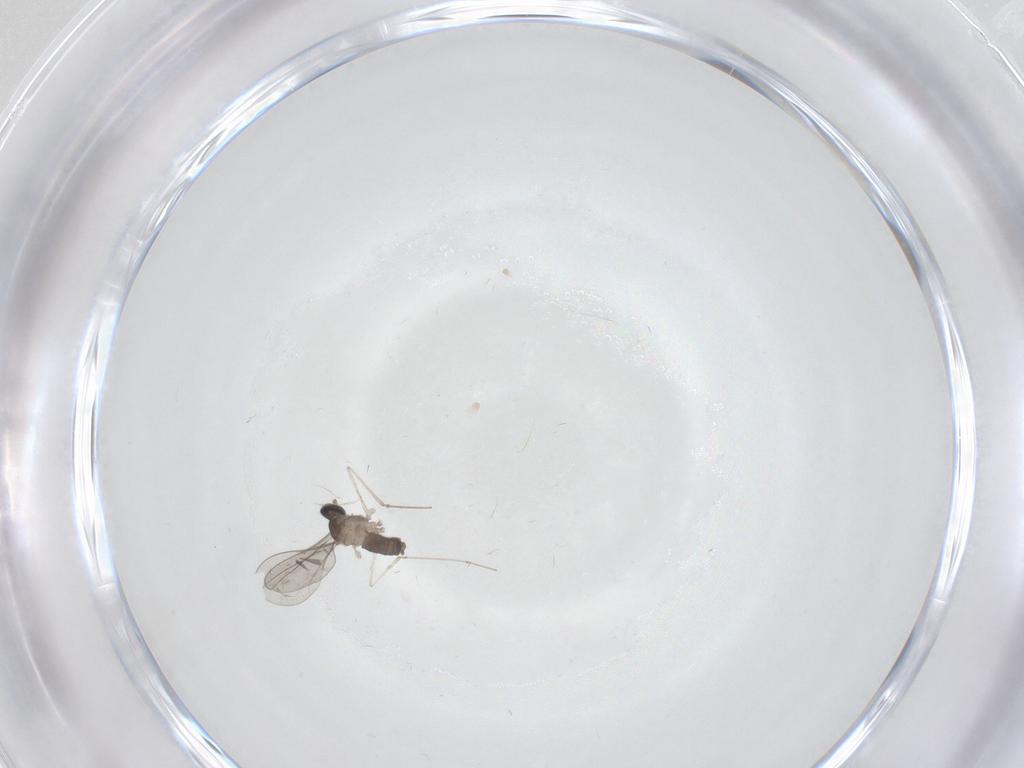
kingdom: Animalia
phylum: Arthropoda
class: Insecta
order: Diptera
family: Cecidomyiidae
